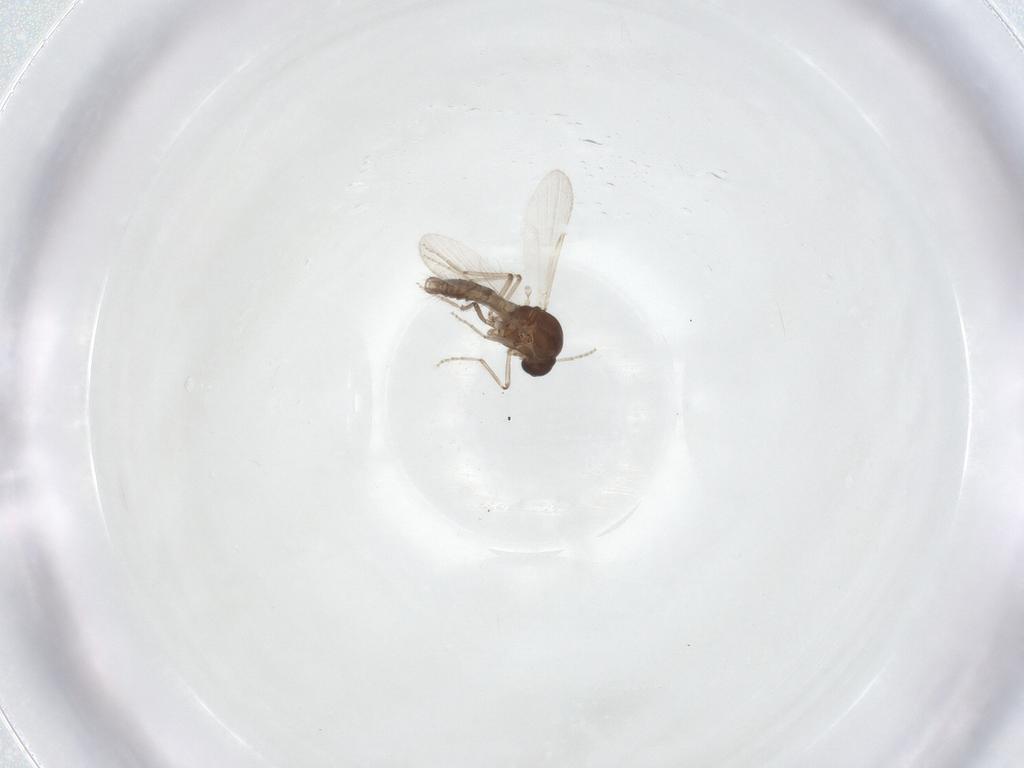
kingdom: Animalia
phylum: Arthropoda
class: Insecta
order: Diptera
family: Ceratopogonidae
